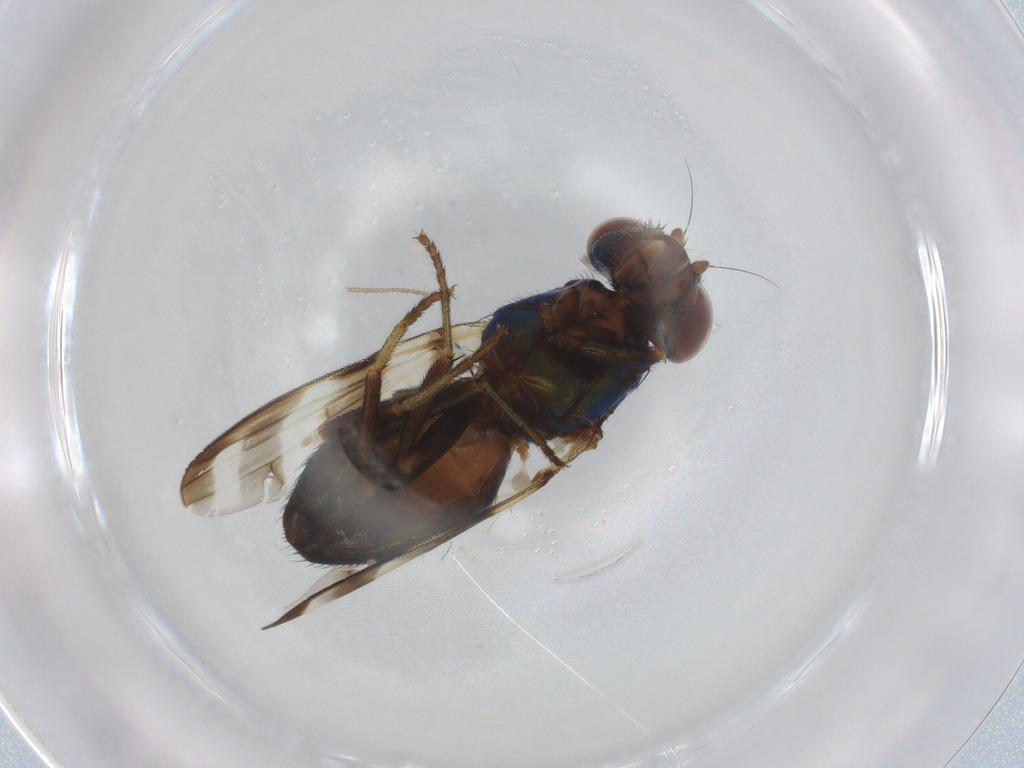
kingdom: Animalia
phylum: Arthropoda
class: Insecta
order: Diptera
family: Ulidiidae
